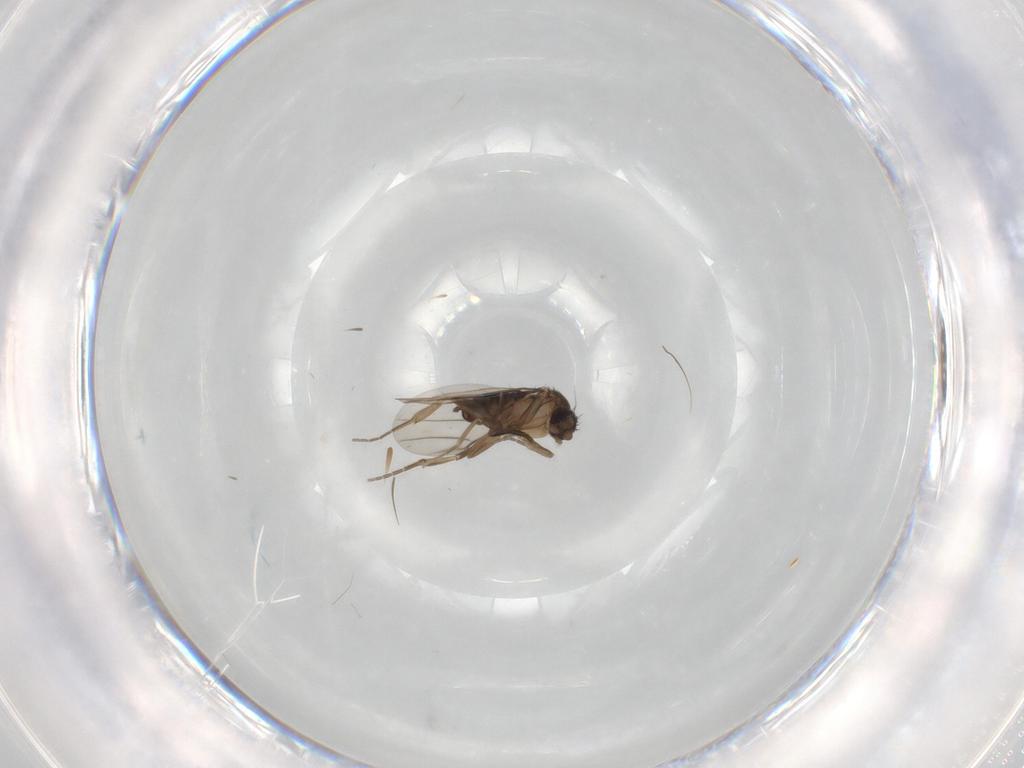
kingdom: Animalia
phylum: Arthropoda
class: Insecta
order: Diptera
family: Phoridae
